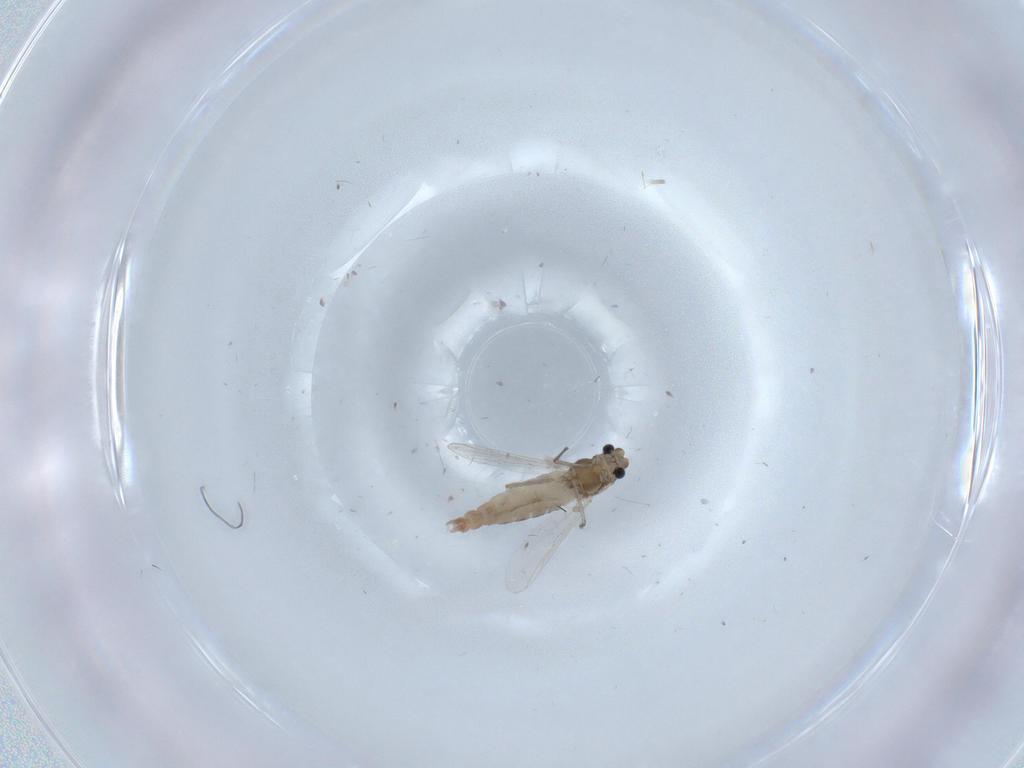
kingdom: Animalia
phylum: Arthropoda
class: Insecta
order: Diptera
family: Chironomidae
